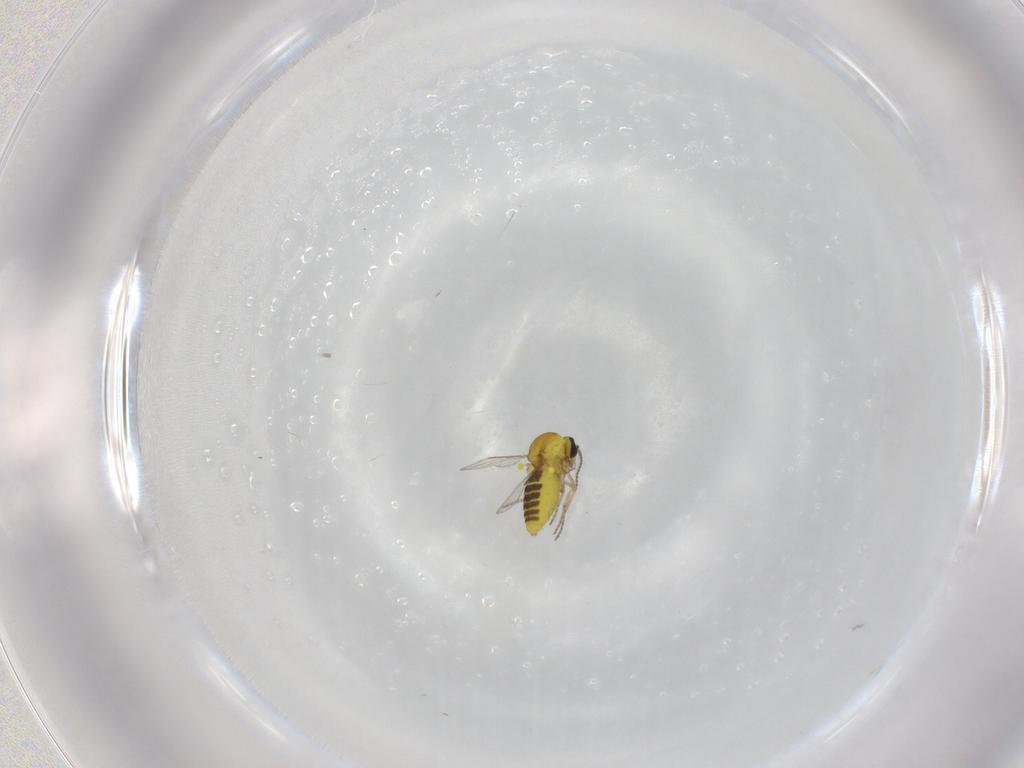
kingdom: Animalia
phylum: Arthropoda
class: Insecta
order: Diptera
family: Ceratopogonidae
